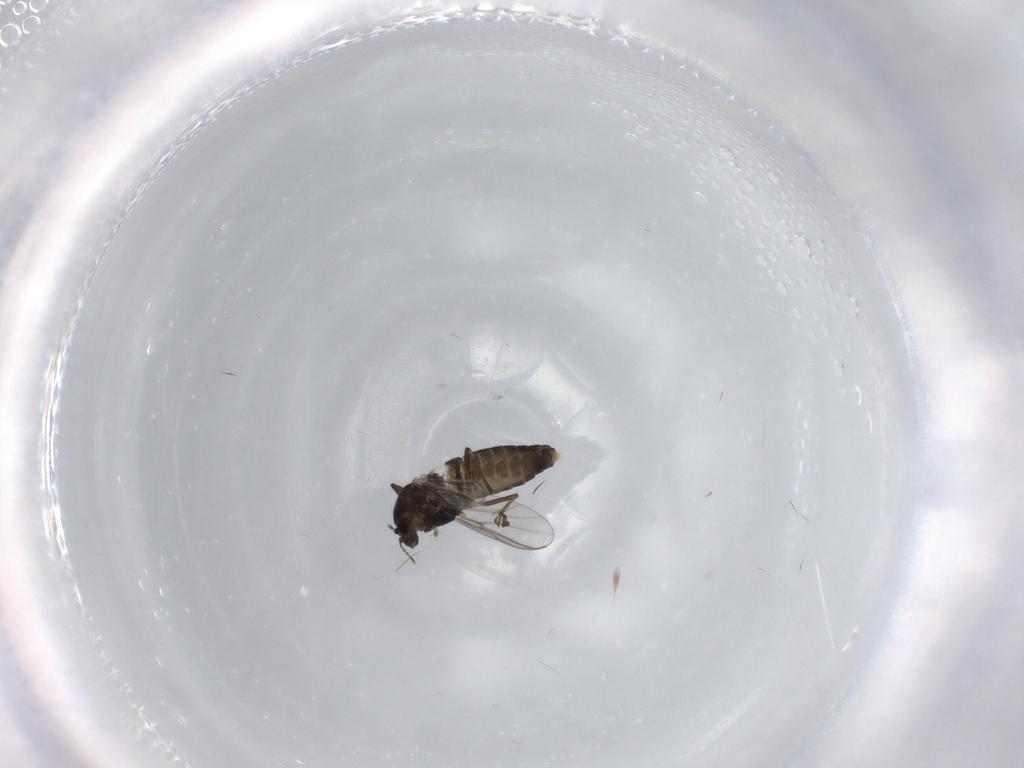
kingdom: Animalia
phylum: Arthropoda
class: Insecta
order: Diptera
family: Chironomidae
